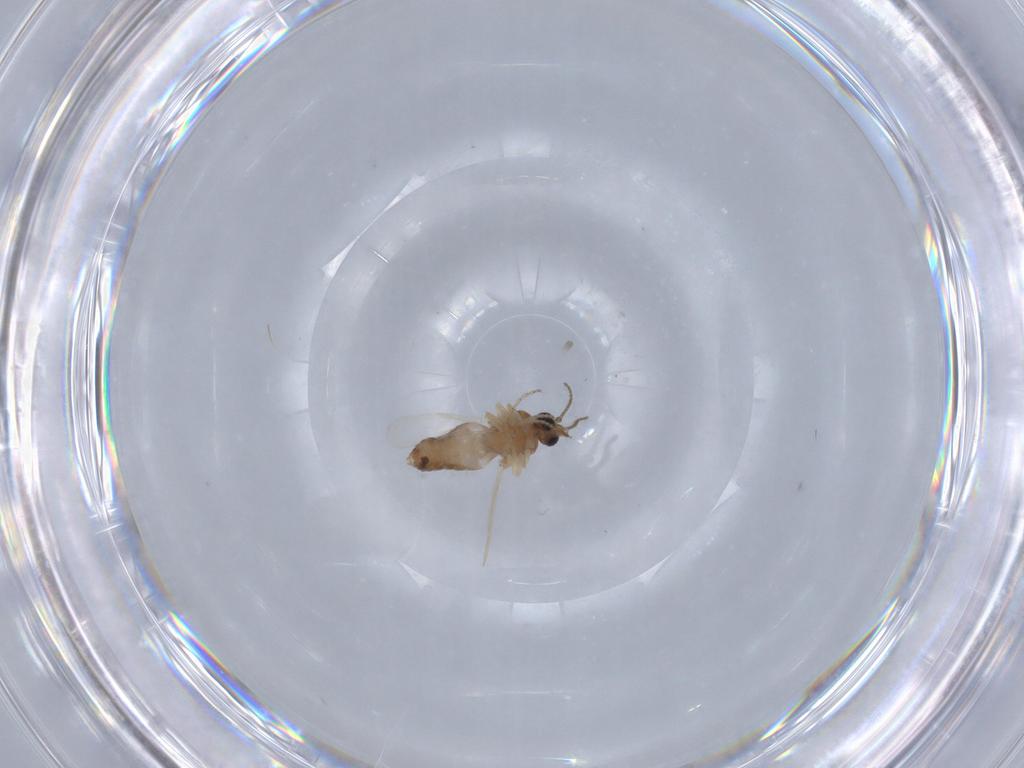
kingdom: Animalia
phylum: Arthropoda
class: Insecta
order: Diptera
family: Ceratopogonidae
